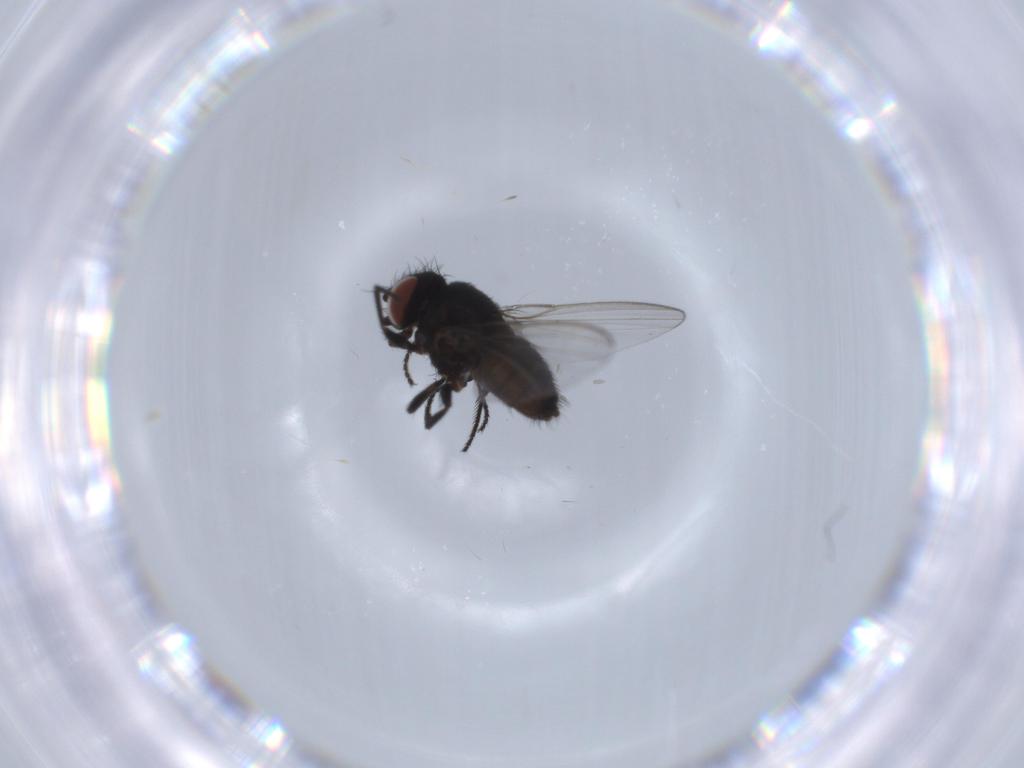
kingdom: Animalia
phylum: Arthropoda
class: Insecta
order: Diptera
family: Milichiidae
